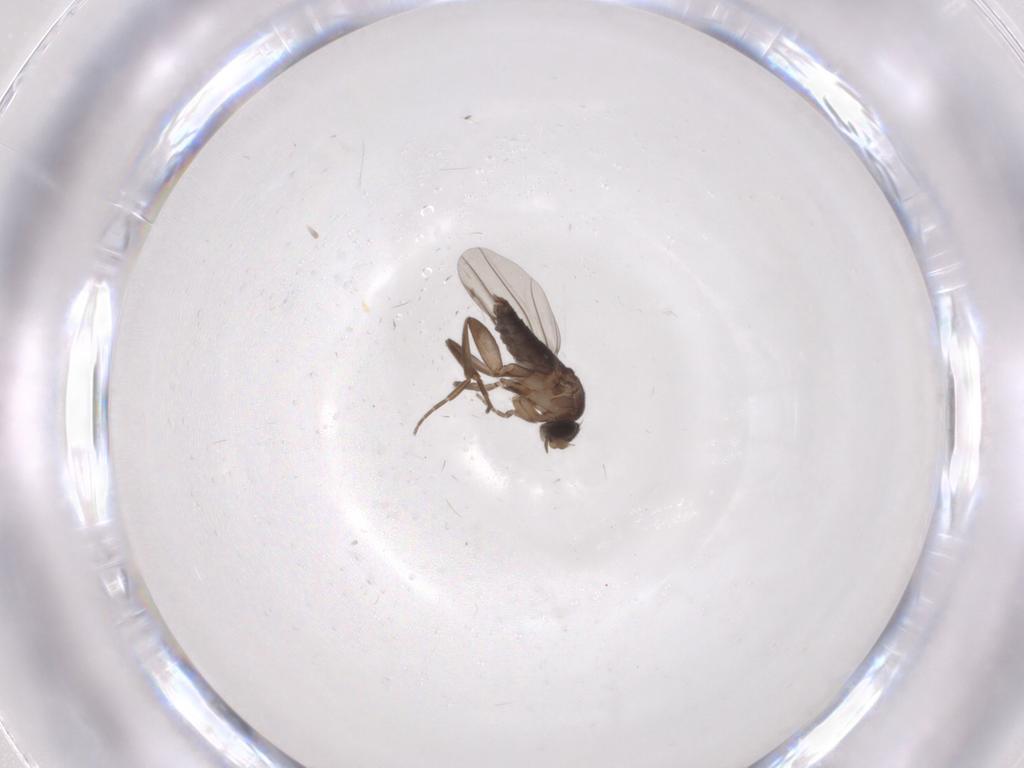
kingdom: Animalia
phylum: Arthropoda
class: Insecta
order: Diptera
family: Phoridae
